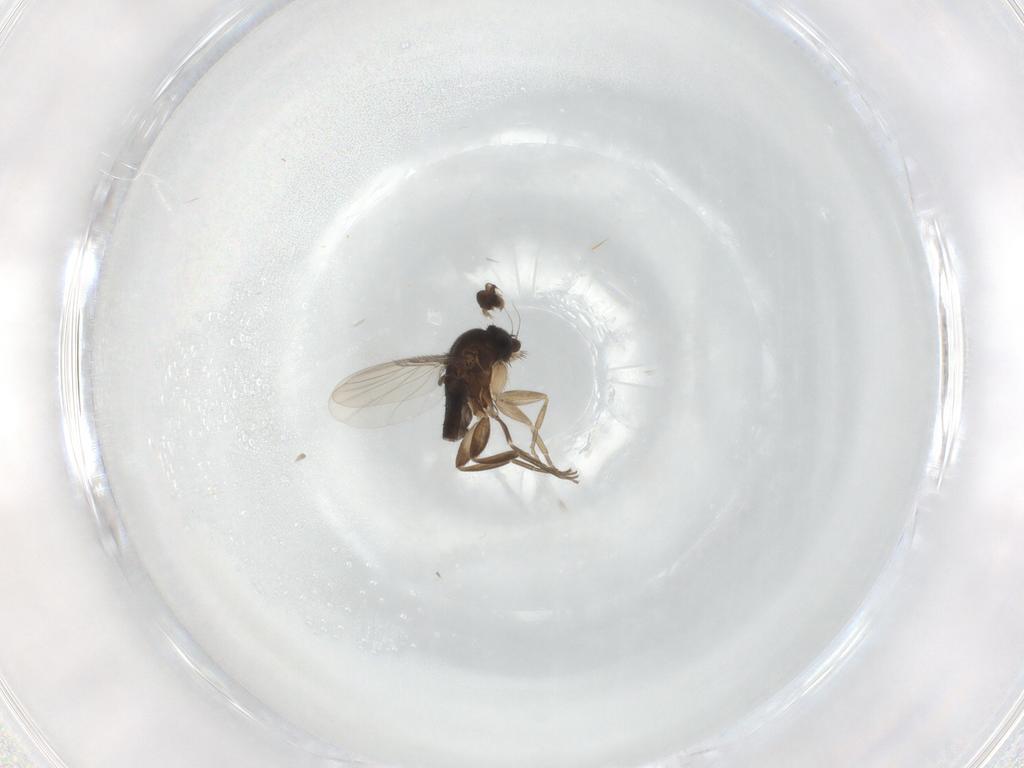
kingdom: Animalia
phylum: Arthropoda
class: Insecta
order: Diptera
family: Phoridae
